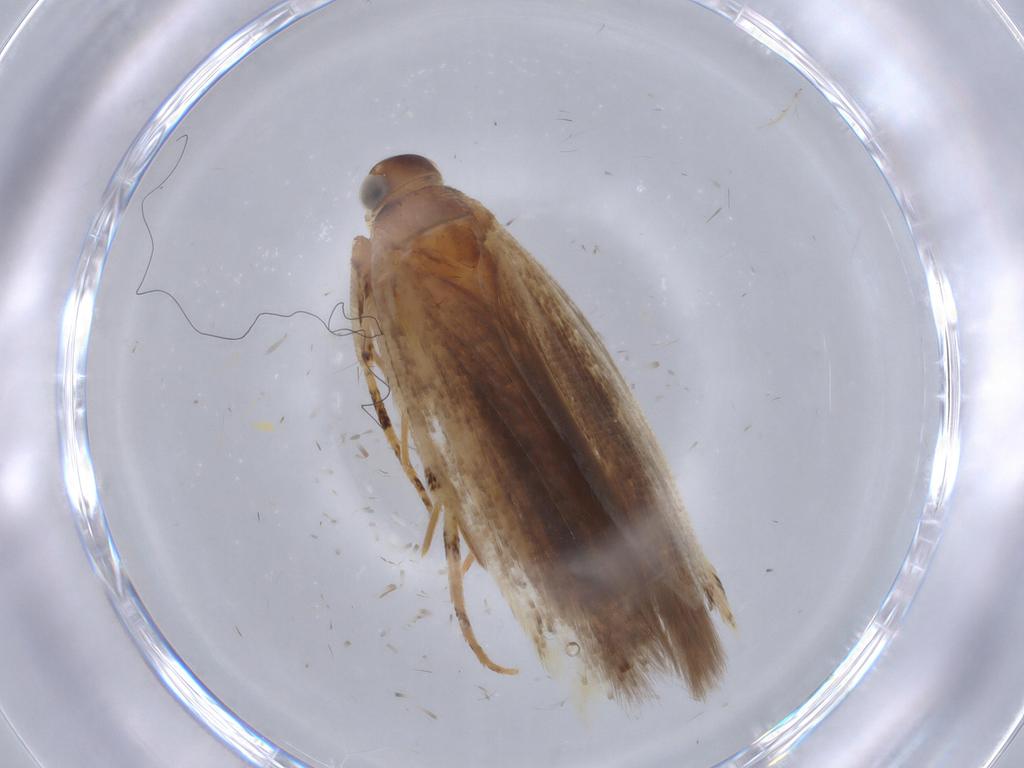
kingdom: Animalia
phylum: Arthropoda
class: Insecta
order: Lepidoptera
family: Gelechiidae
